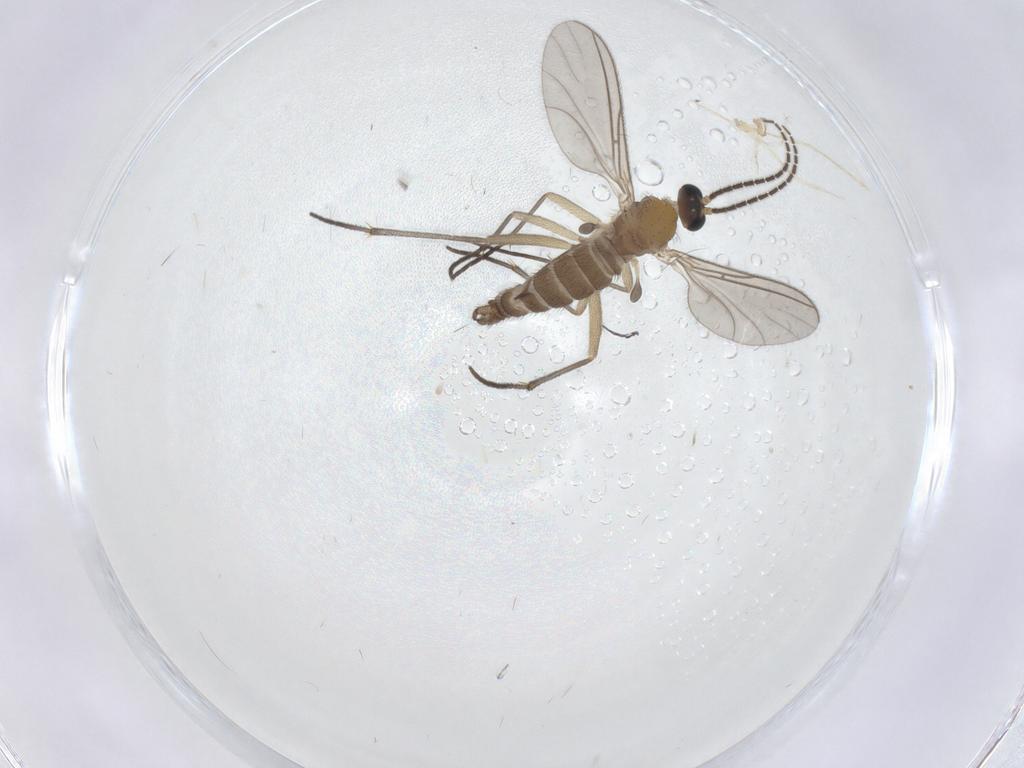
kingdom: Animalia
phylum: Arthropoda
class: Insecta
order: Diptera
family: Sciaridae
